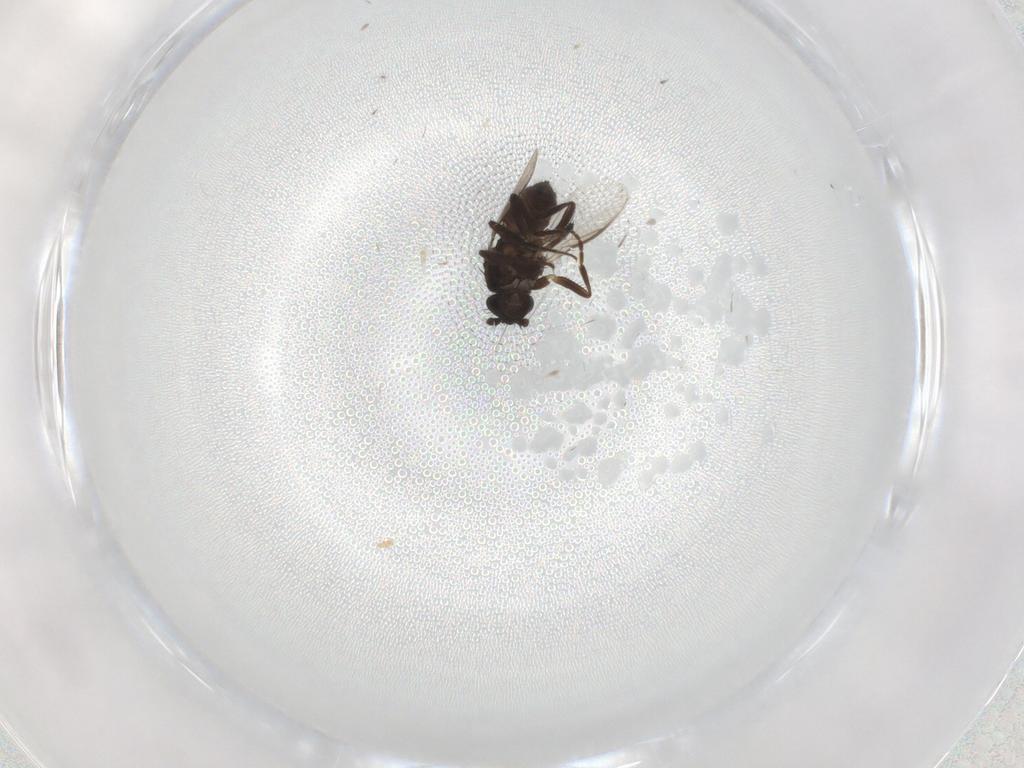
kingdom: Animalia
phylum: Arthropoda
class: Insecta
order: Diptera
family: Sphaeroceridae
